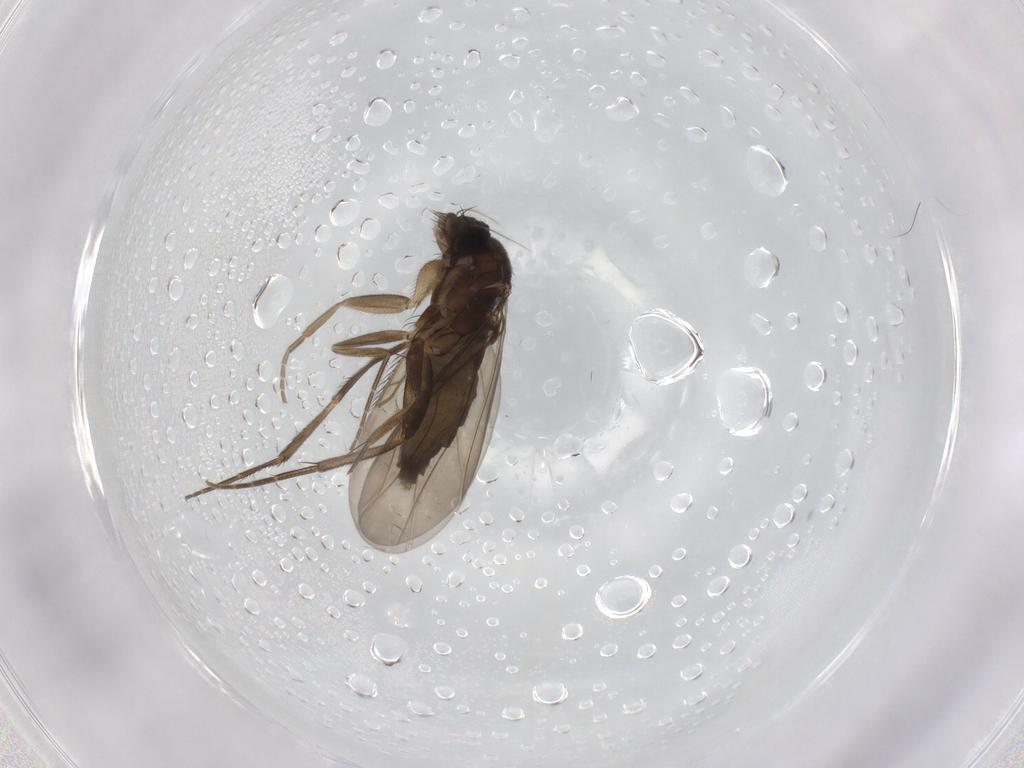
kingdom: Animalia
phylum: Arthropoda
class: Insecta
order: Diptera
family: Phoridae
